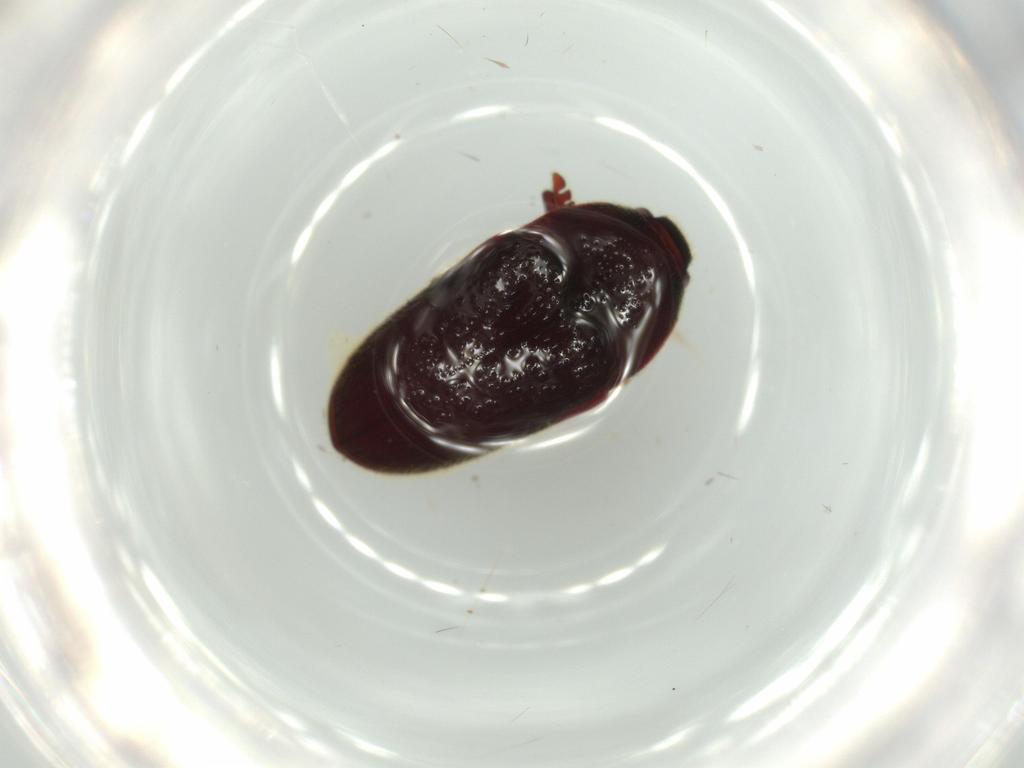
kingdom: Animalia
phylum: Arthropoda
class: Insecta
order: Coleoptera
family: Throscidae
